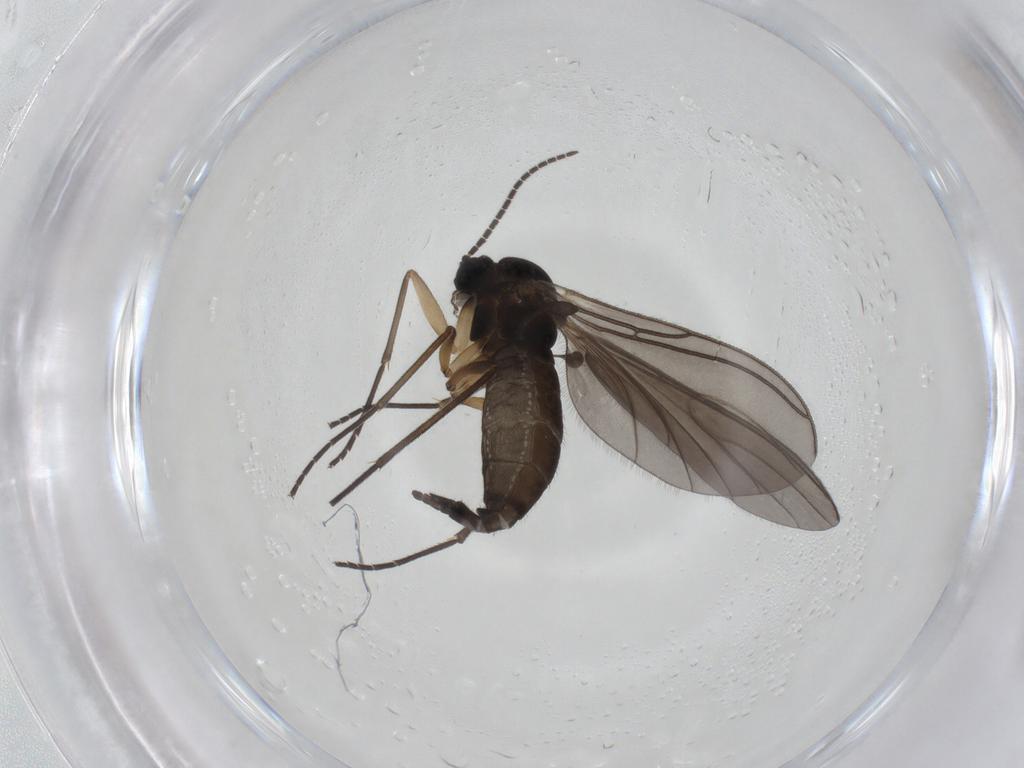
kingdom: Animalia
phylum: Arthropoda
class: Insecta
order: Diptera
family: Sciaridae
